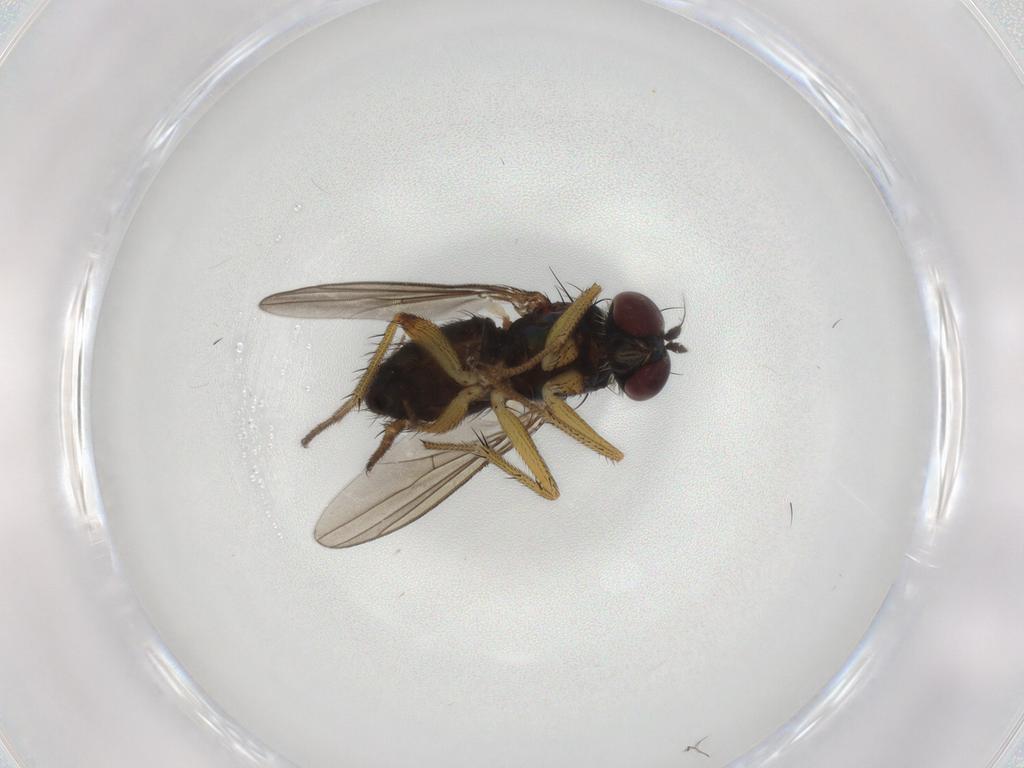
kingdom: Animalia
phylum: Arthropoda
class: Insecta
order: Diptera
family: Dolichopodidae
